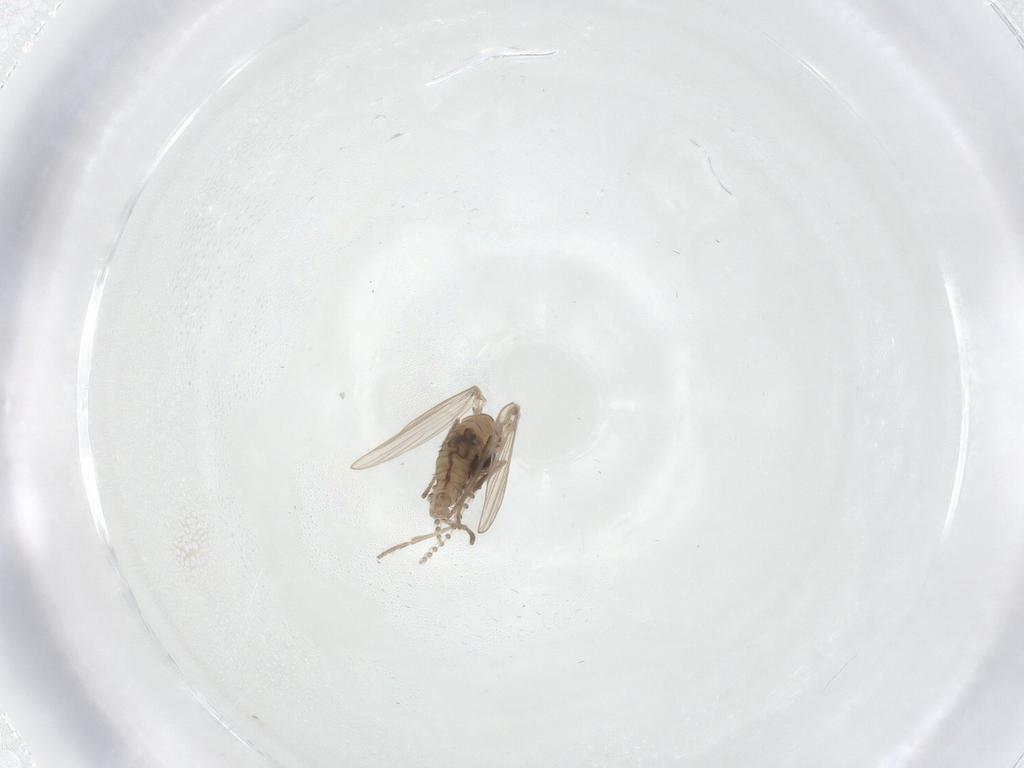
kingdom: Animalia
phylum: Arthropoda
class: Insecta
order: Diptera
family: Psychodidae
